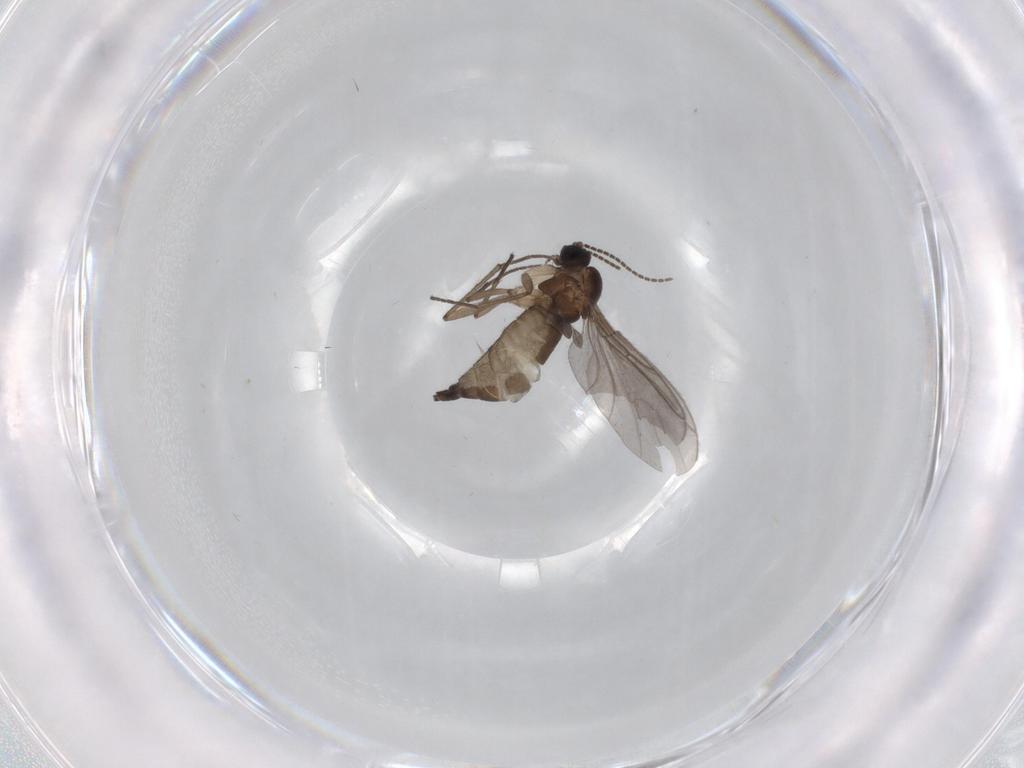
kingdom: Animalia
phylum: Arthropoda
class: Insecta
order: Diptera
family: Sciaridae
